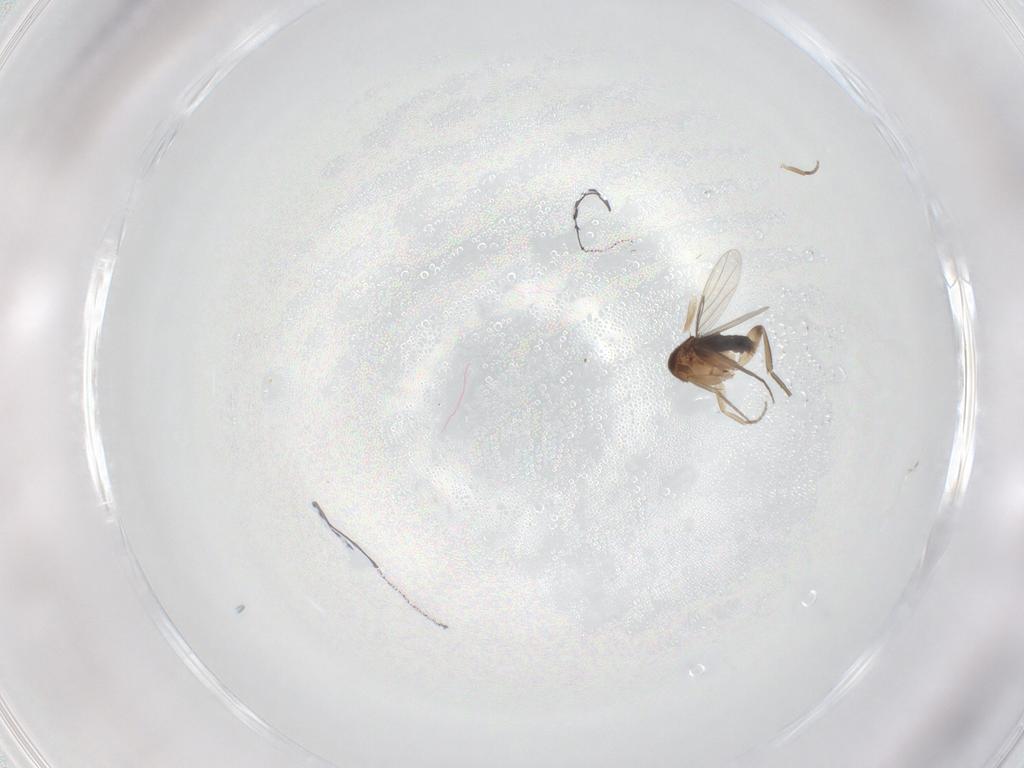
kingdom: Animalia
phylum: Arthropoda
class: Insecta
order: Diptera
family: Ceratopogonidae
